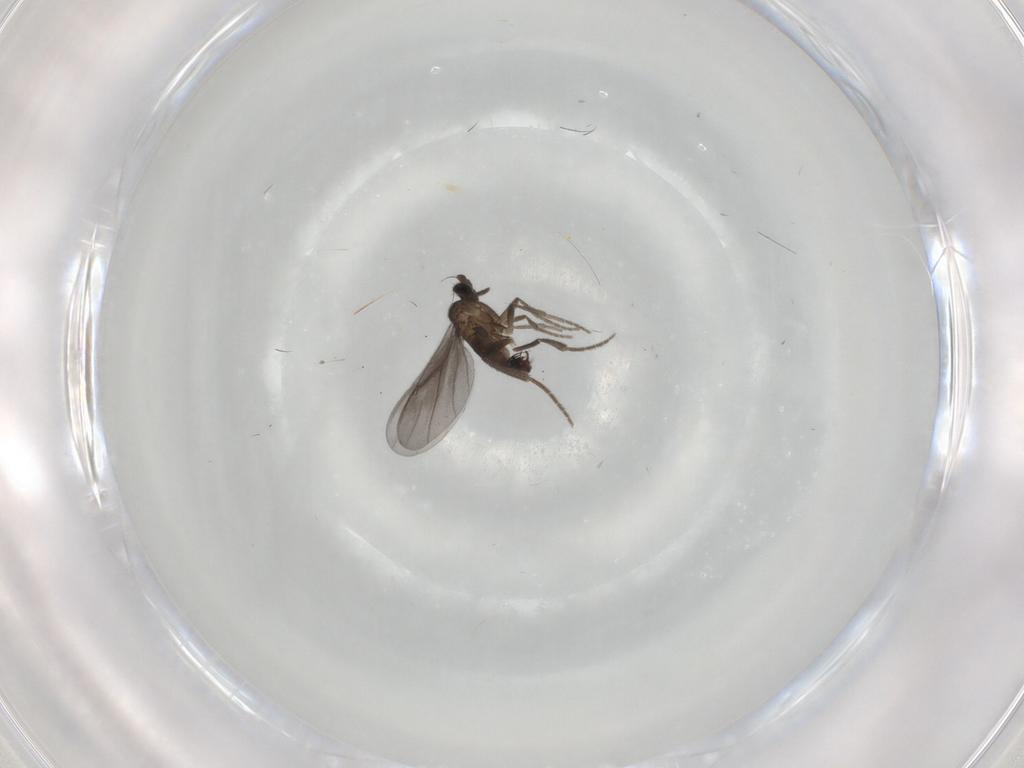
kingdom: Animalia
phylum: Arthropoda
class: Insecta
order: Diptera
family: Phoridae
